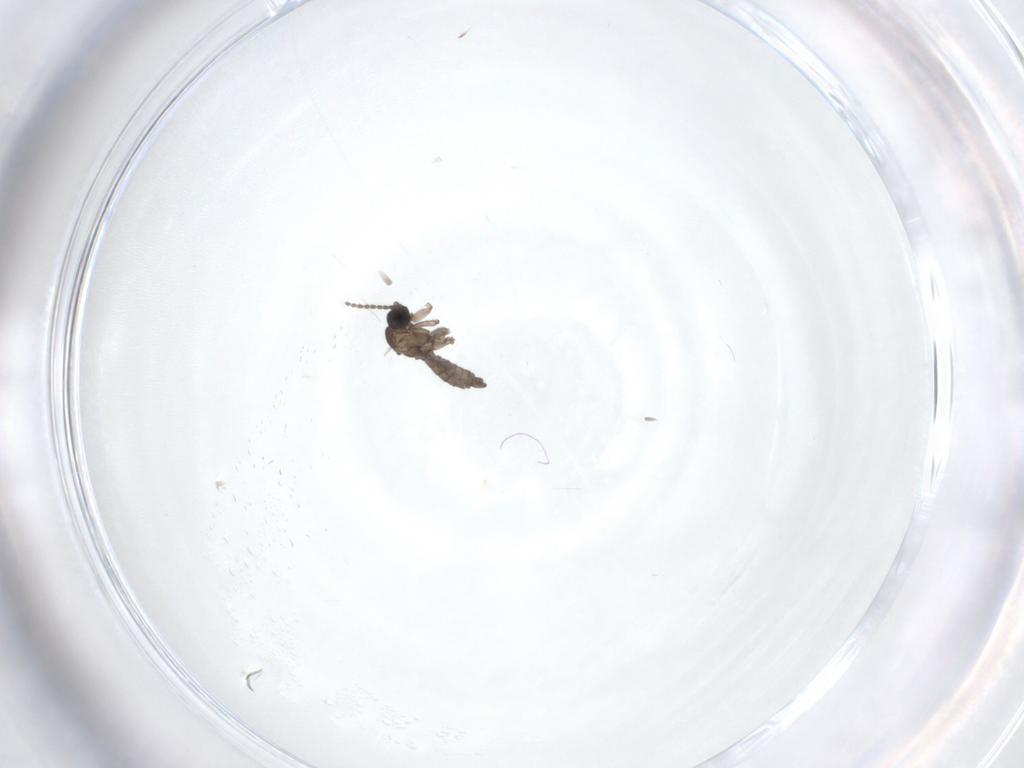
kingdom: Animalia
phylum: Arthropoda
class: Insecta
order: Diptera
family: Sciaridae
